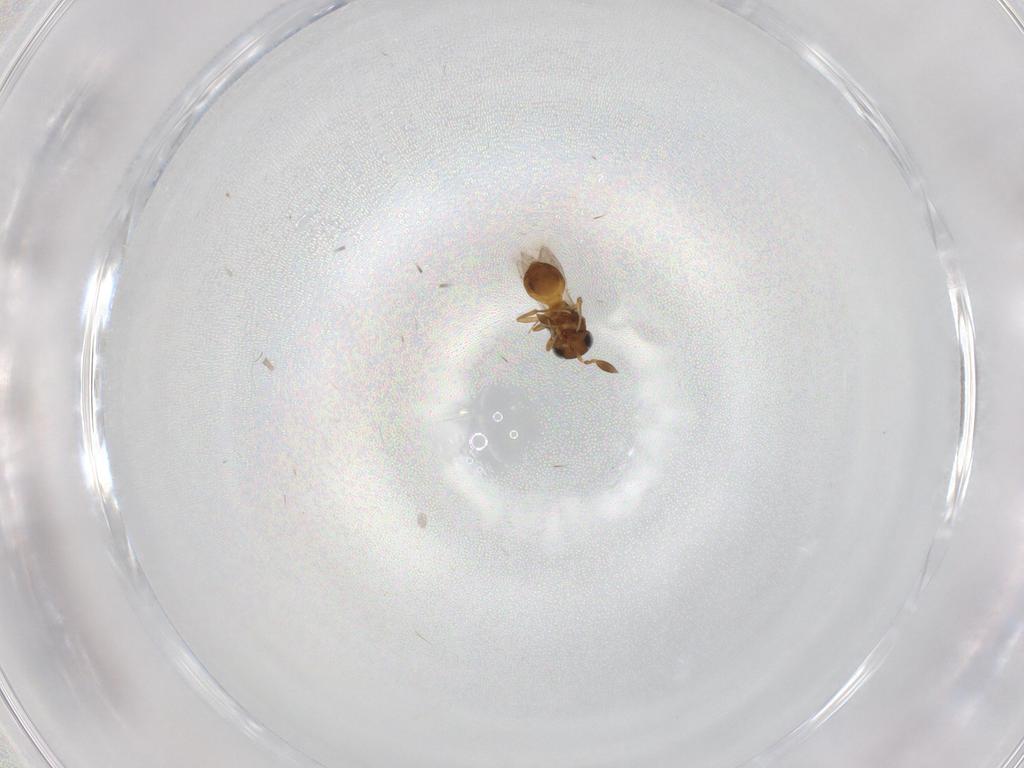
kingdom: Animalia
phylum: Arthropoda
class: Insecta
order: Hymenoptera
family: Scelionidae
